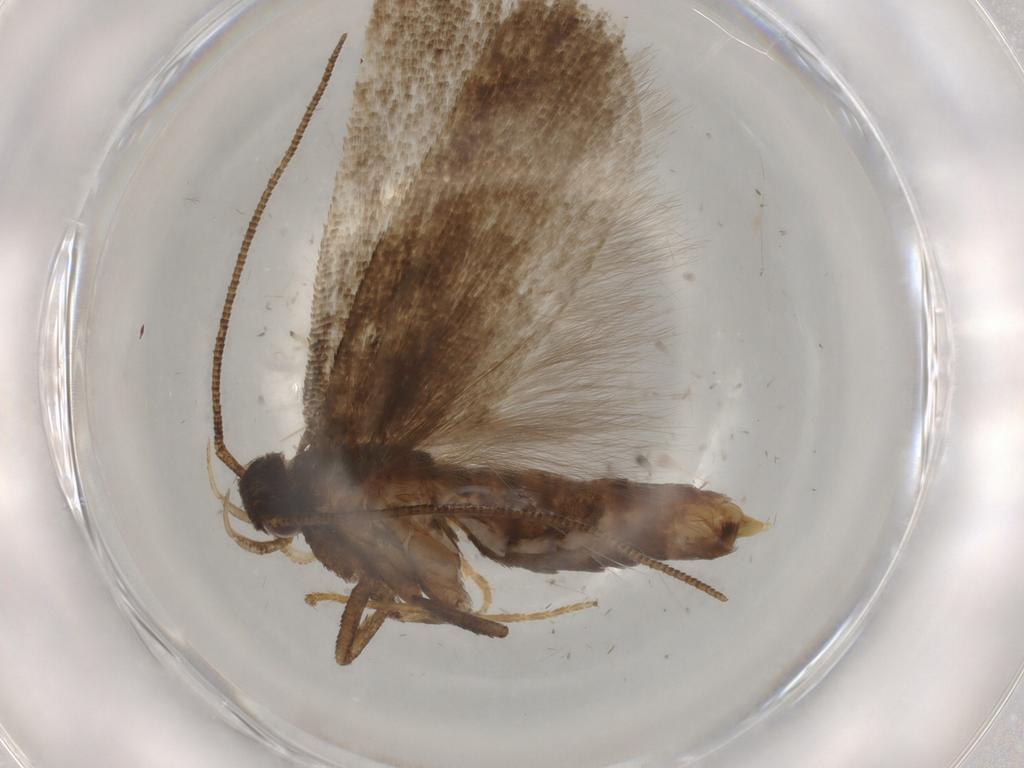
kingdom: Animalia
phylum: Arthropoda
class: Insecta
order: Lepidoptera
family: Gelechiidae
